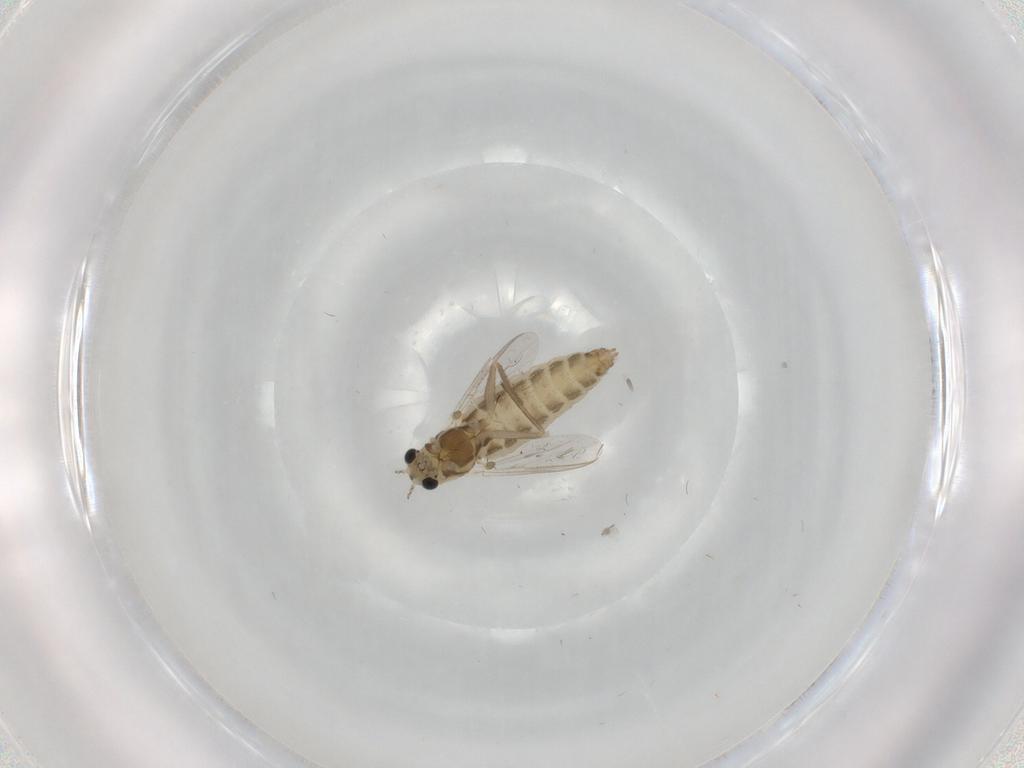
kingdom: Animalia
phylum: Arthropoda
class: Insecta
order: Diptera
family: Chironomidae
